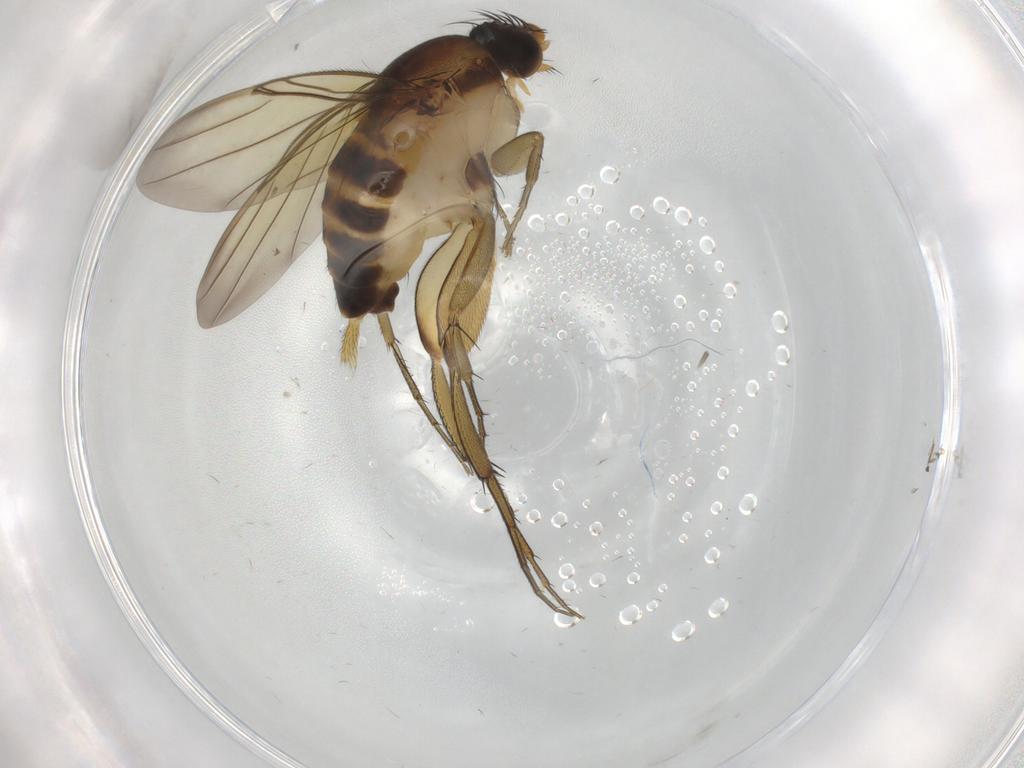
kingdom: Animalia
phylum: Arthropoda
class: Insecta
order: Diptera
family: Phoridae
